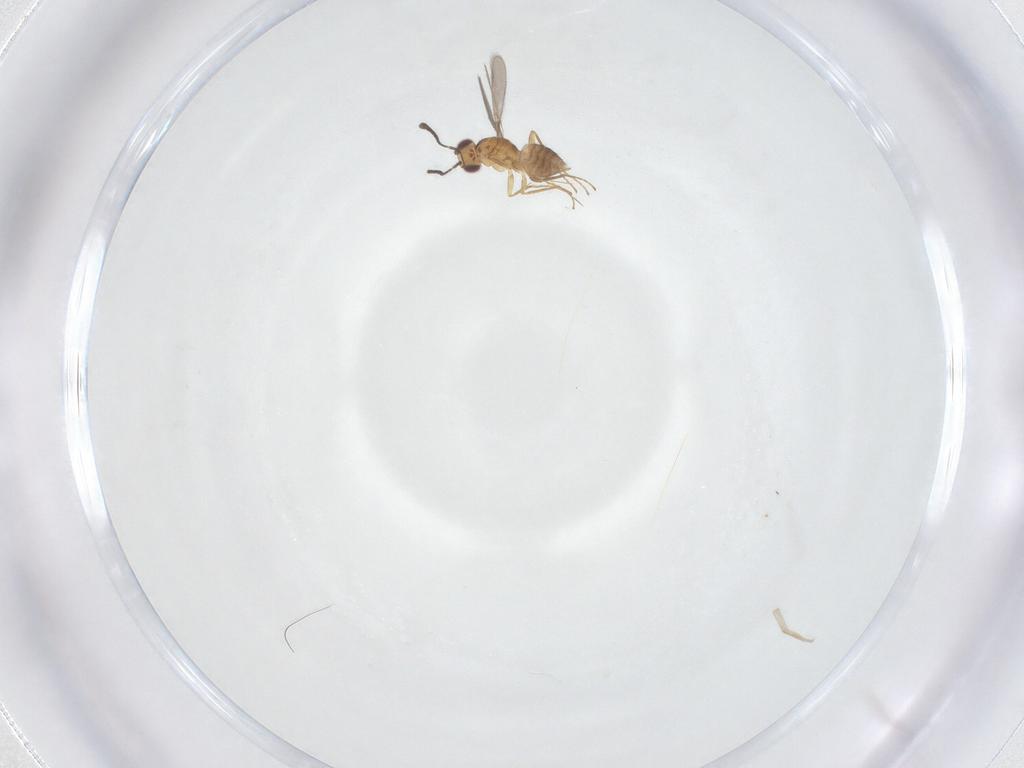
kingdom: Animalia
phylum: Arthropoda
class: Insecta
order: Hymenoptera
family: Mymaridae
